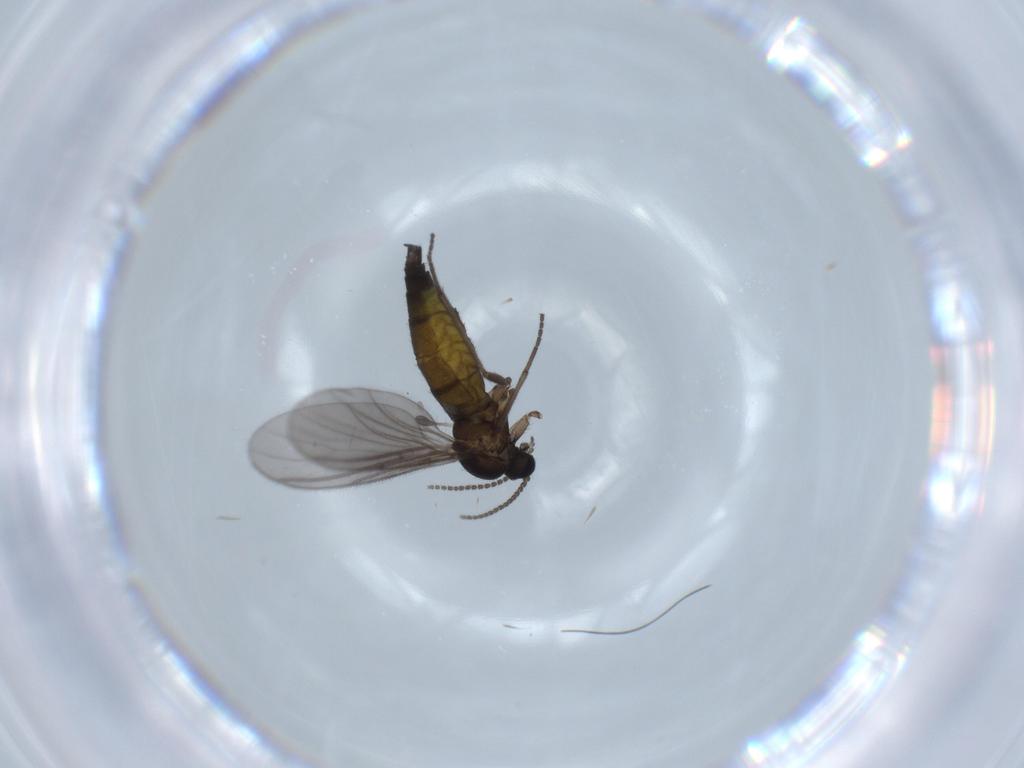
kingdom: Animalia
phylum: Arthropoda
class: Insecta
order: Diptera
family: Sciaridae
